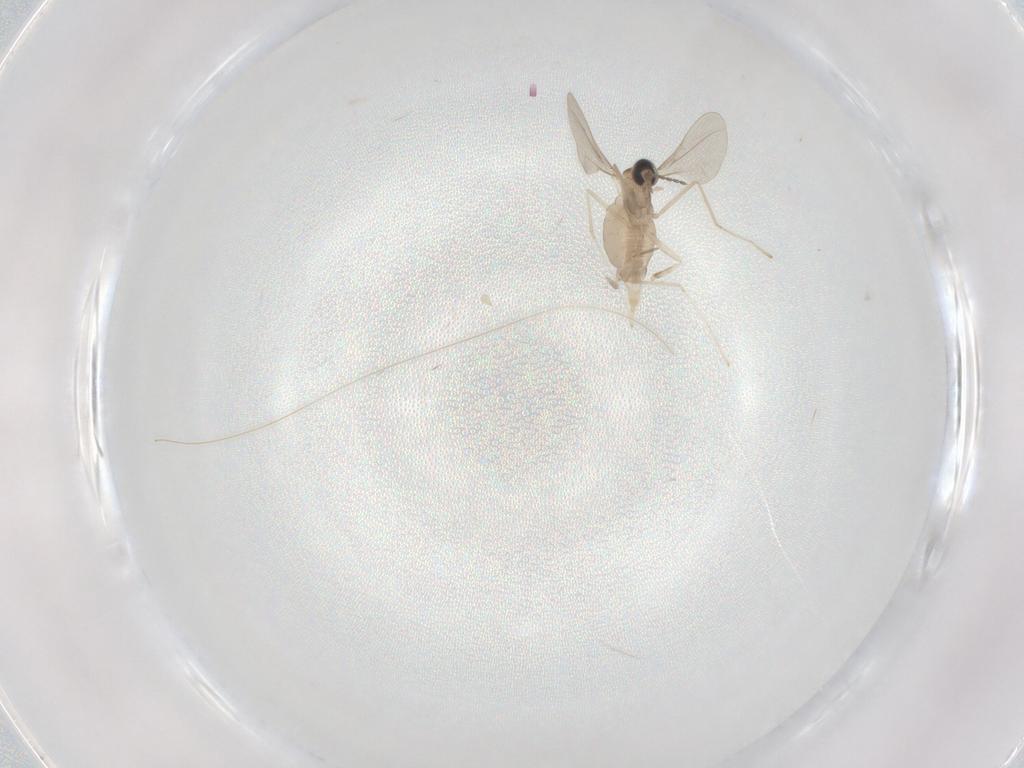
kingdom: Animalia
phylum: Arthropoda
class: Insecta
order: Diptera
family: Cecidomyiidae
